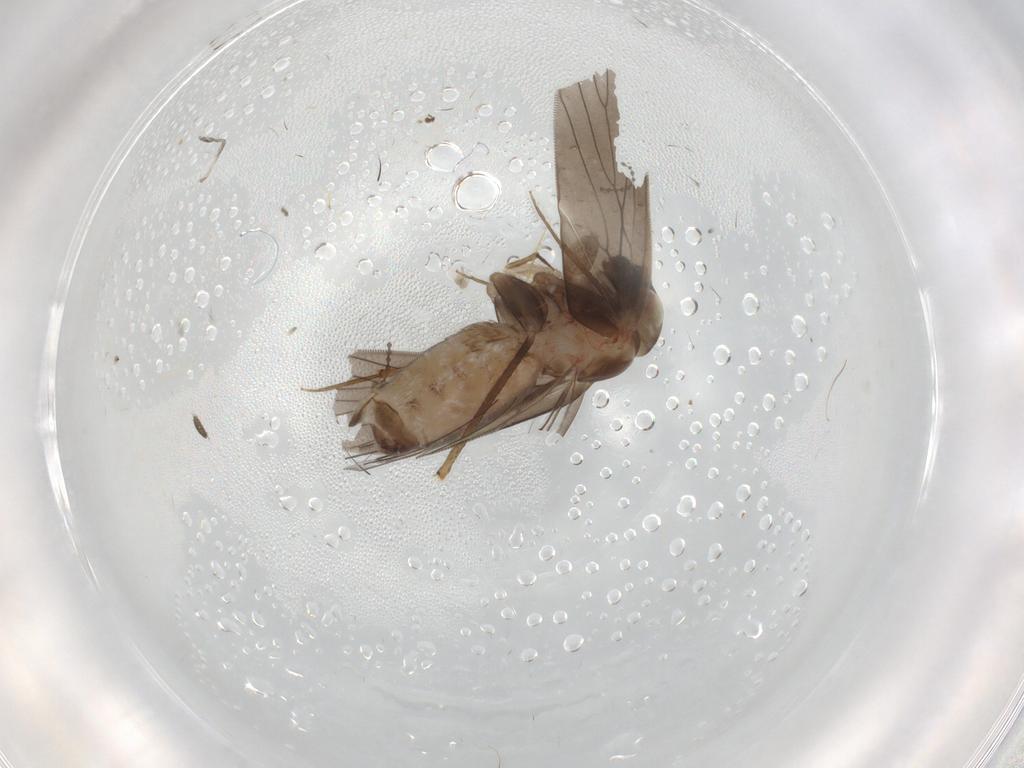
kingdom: Animalia
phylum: Arthropoda
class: Insecta
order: Psocodea
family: Lepidopsocidae
